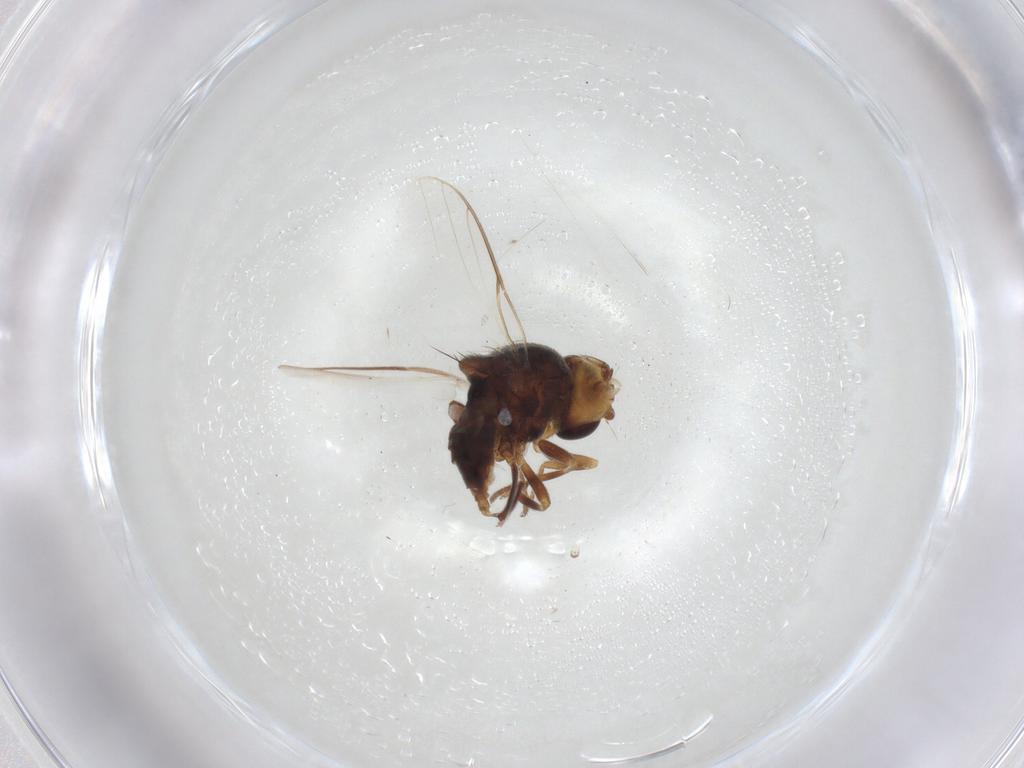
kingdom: Animalia
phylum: Arthropoda
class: Insecta
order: Diptera
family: Chloropidae
